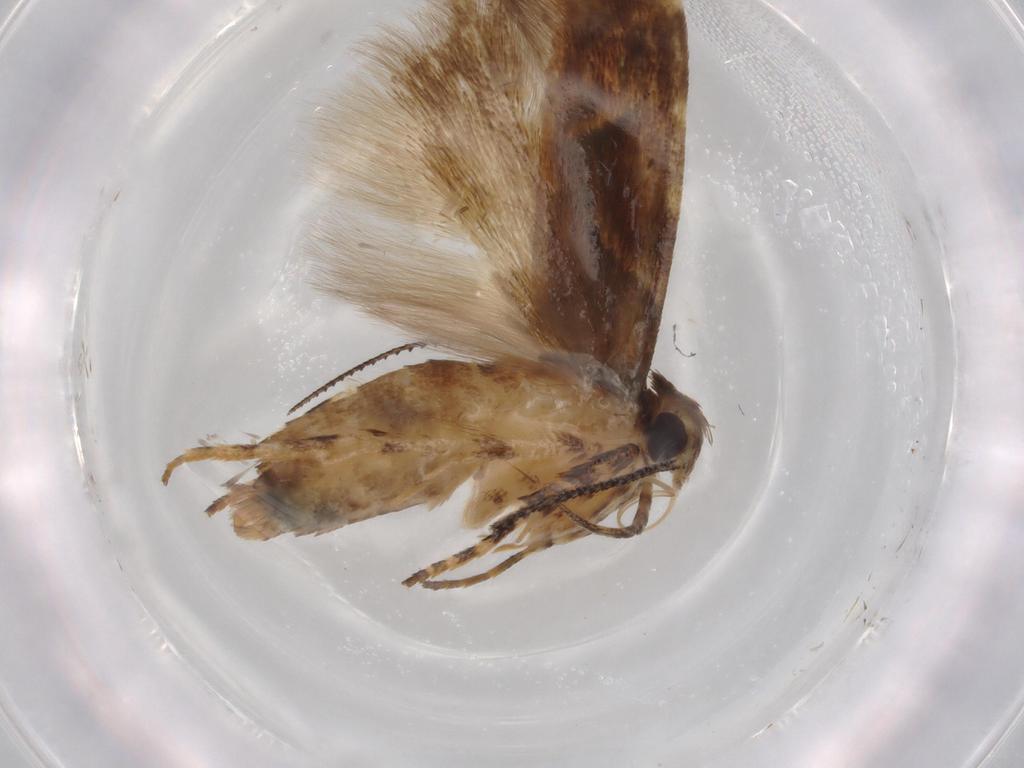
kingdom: Animalia
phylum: Arthropoda
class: Insecta
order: Lepidoptera
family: Gelechiidae
